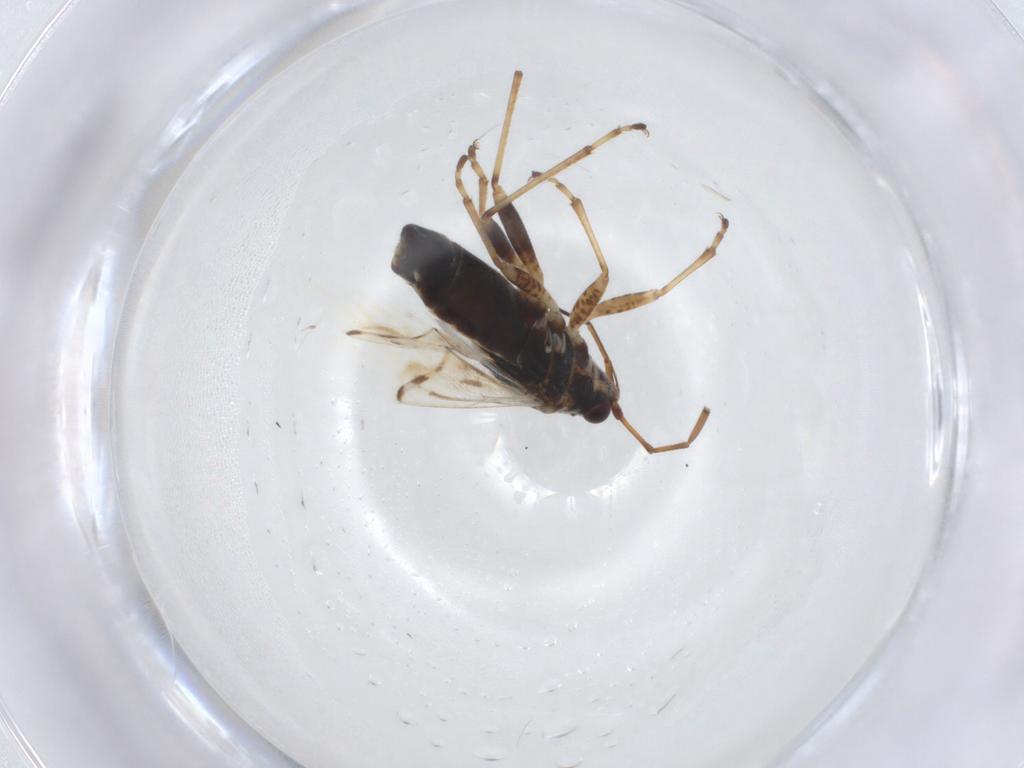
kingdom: Animalia
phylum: Arthropoda
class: Insecta
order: Hemiptera
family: Lygaeidae
